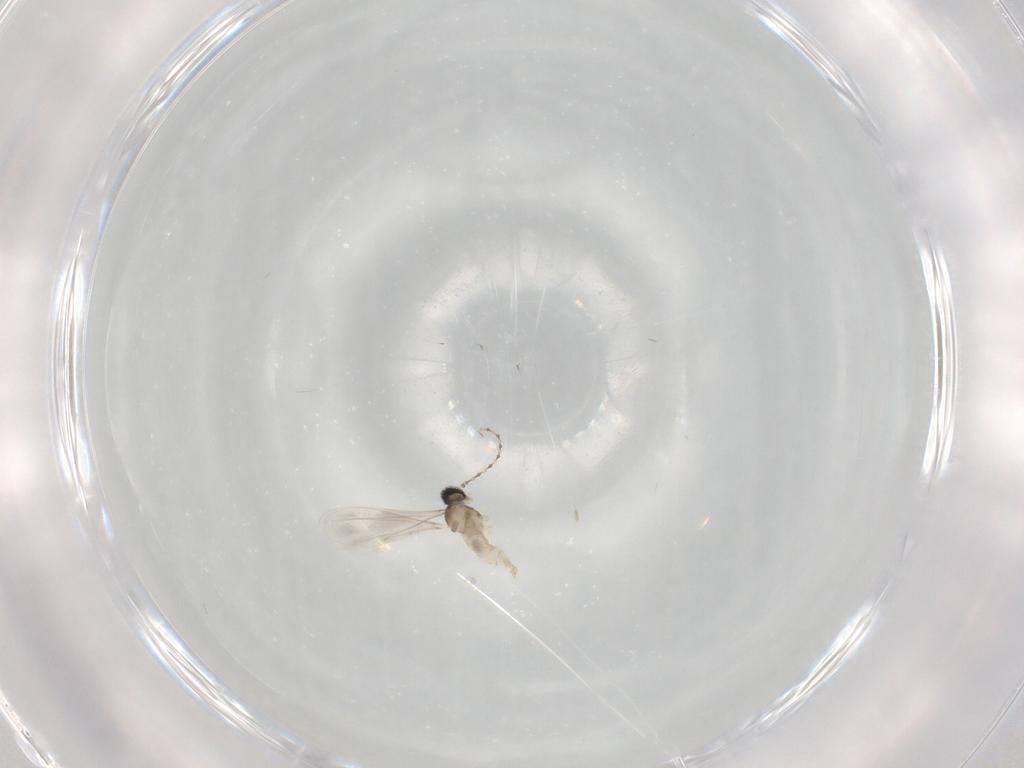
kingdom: Animalia
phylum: Arthropoda
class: Insecta
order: Diptera
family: Cecidomyiidae
